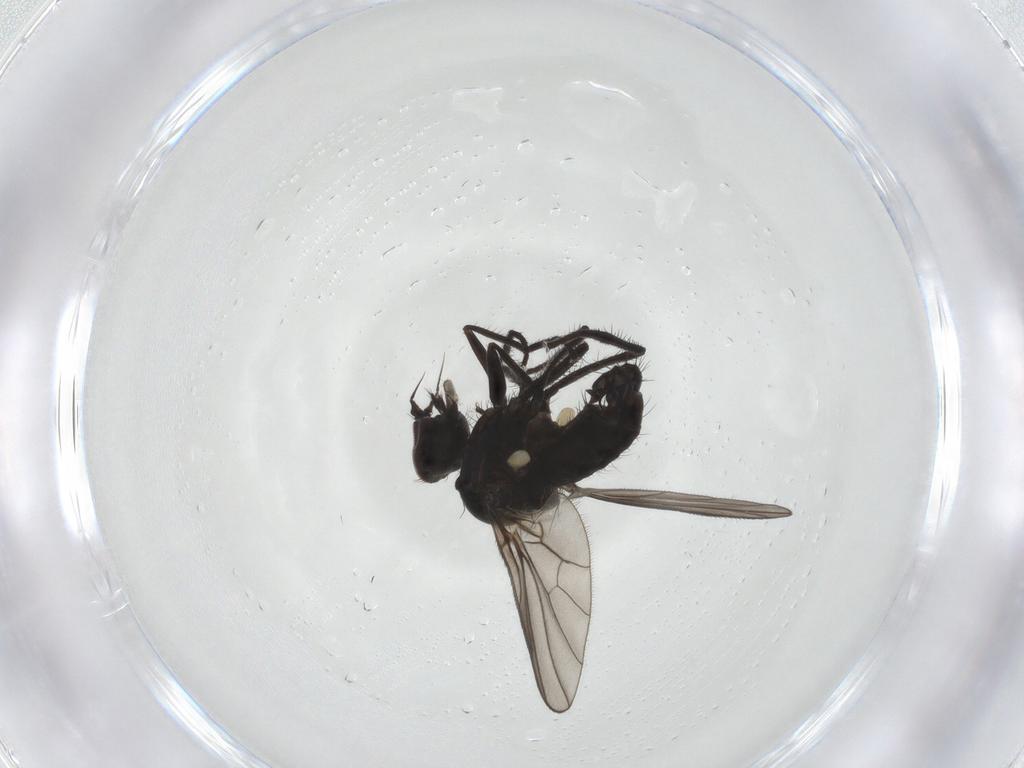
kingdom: Animalia
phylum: Arthropoda
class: Insecta
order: Diptera
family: Dolichopodidae
